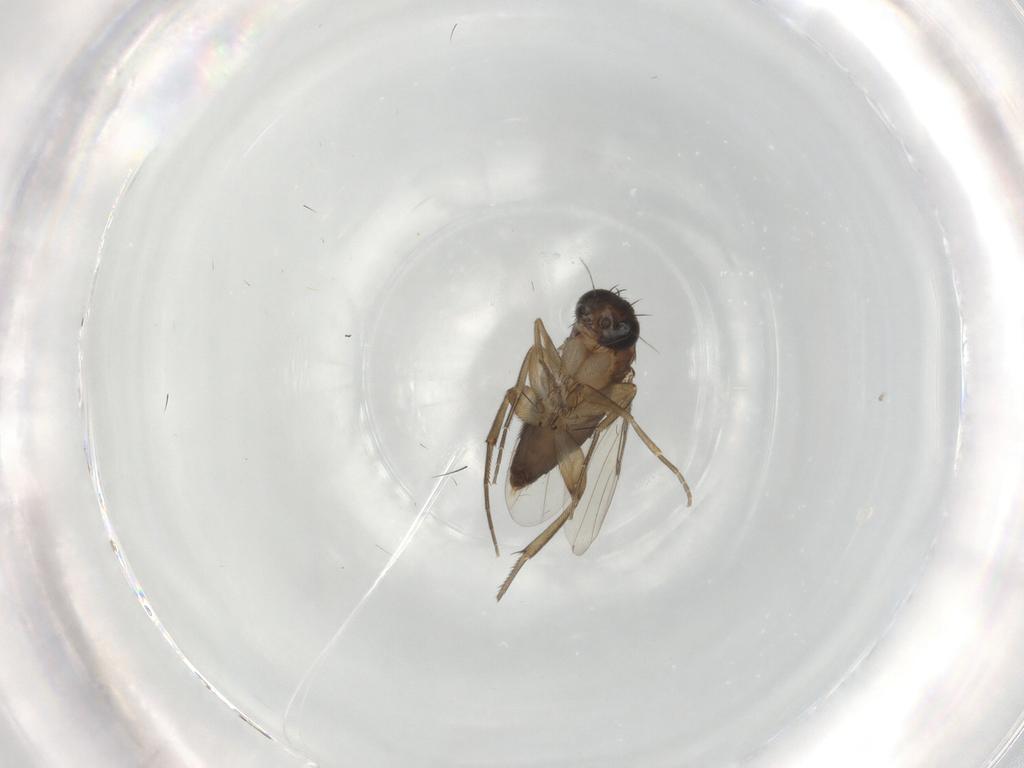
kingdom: Animalia
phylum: Arthropoda
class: Insecta
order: Diptera
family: Phoridae
